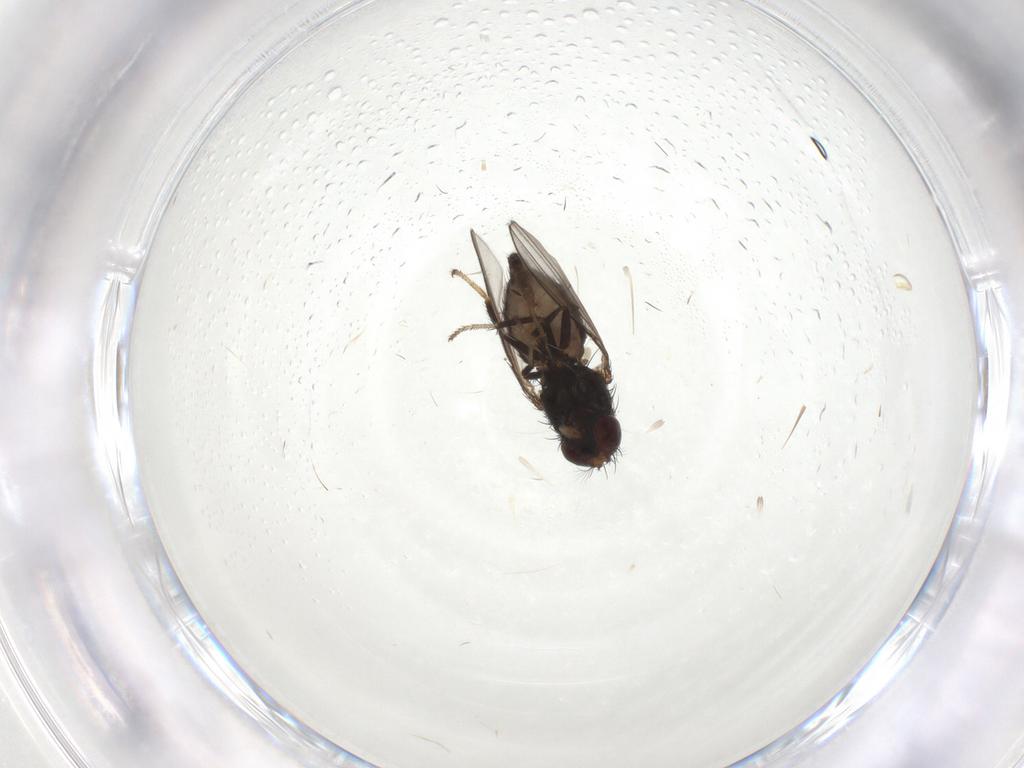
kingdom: Animalia
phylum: Arthropoda
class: Insecta
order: Diptera
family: Ephydridae
